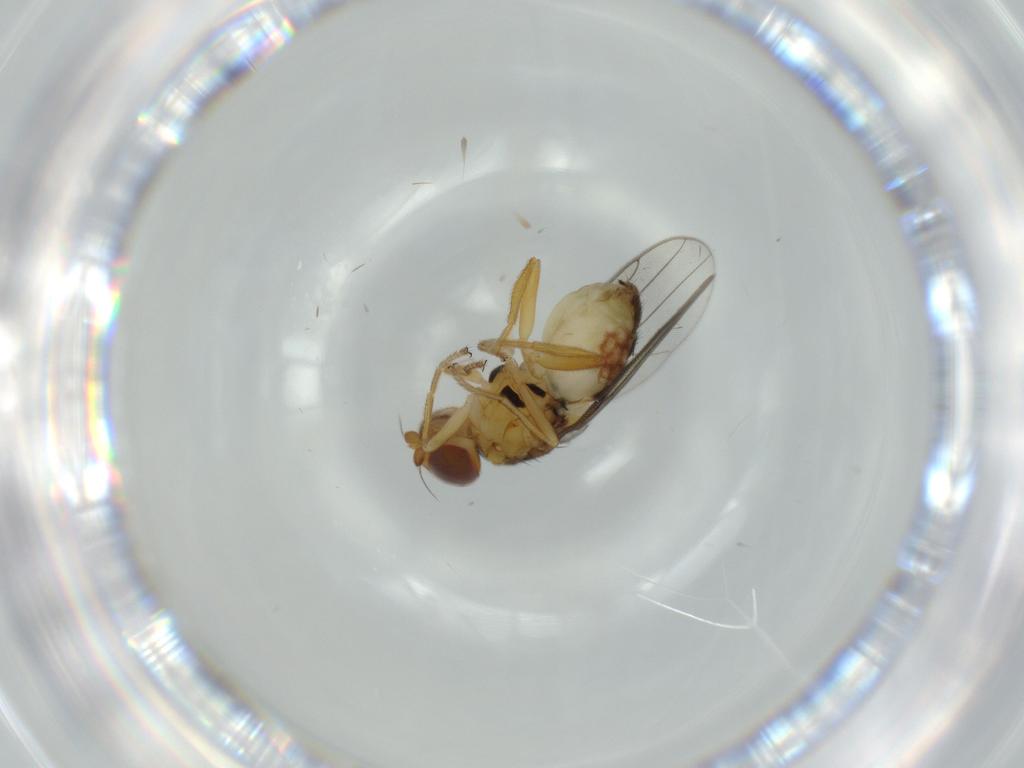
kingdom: Animalia
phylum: Arthropoda
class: Insecta
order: Diptera
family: Chloropidae
